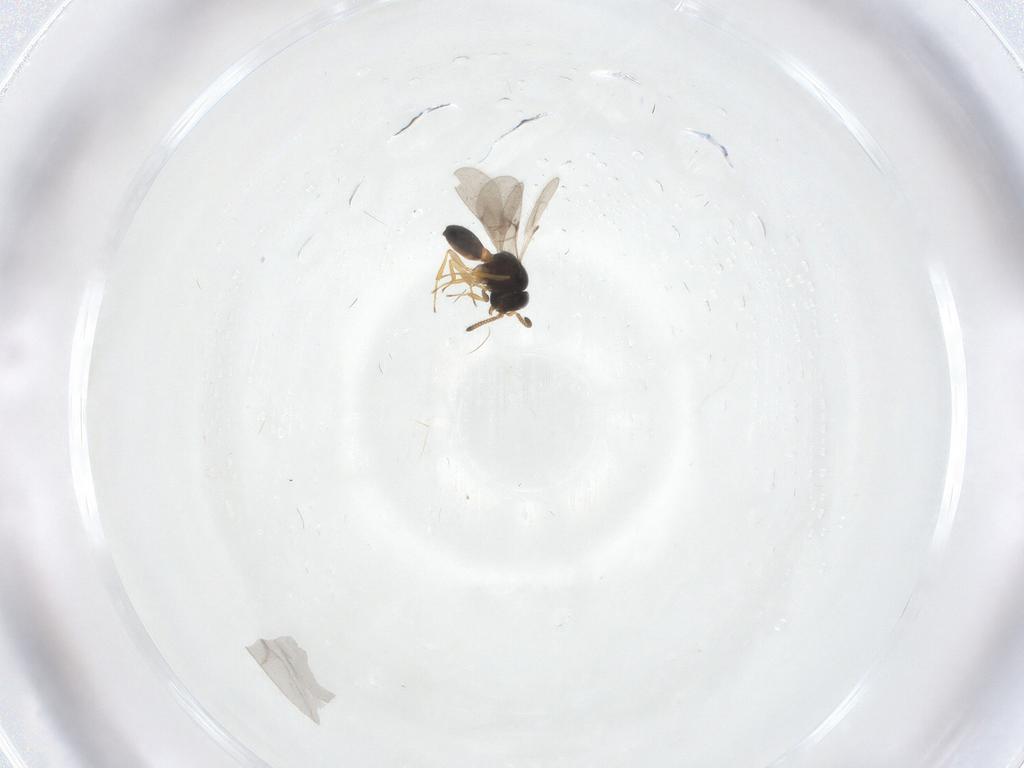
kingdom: Animalia
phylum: Arthropoda
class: Insecta
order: Hymenoptera
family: Scelionidae
